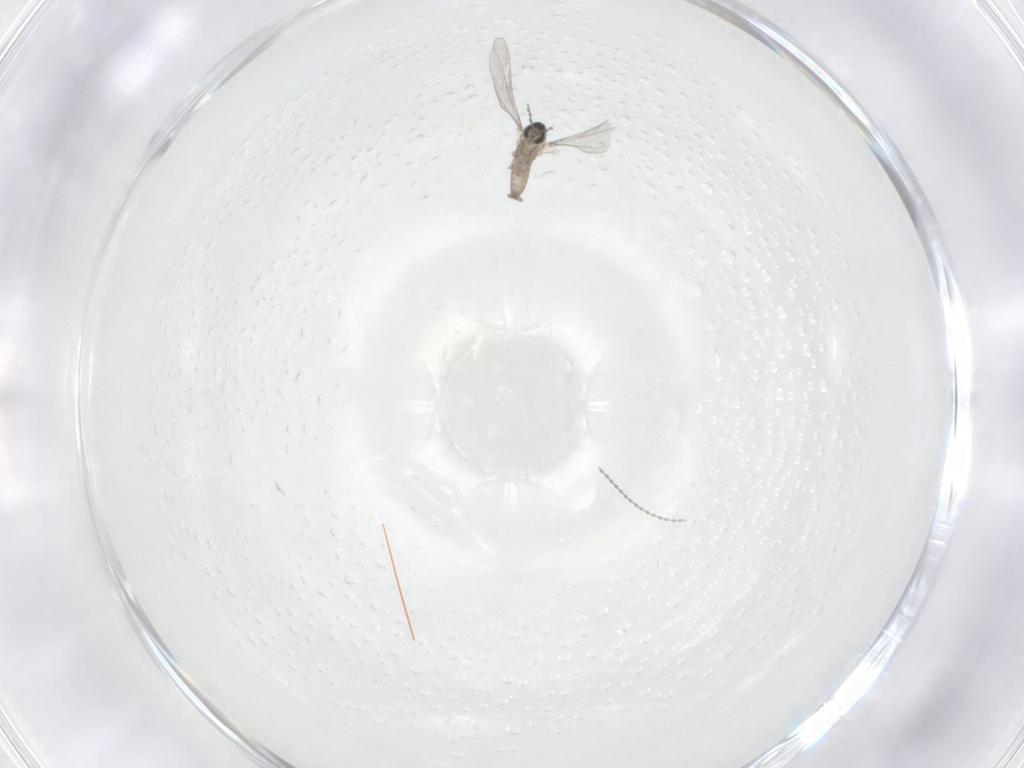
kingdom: Animalia
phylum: Arthropoda
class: Insecta
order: Diptera
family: Cecidomyiidae
